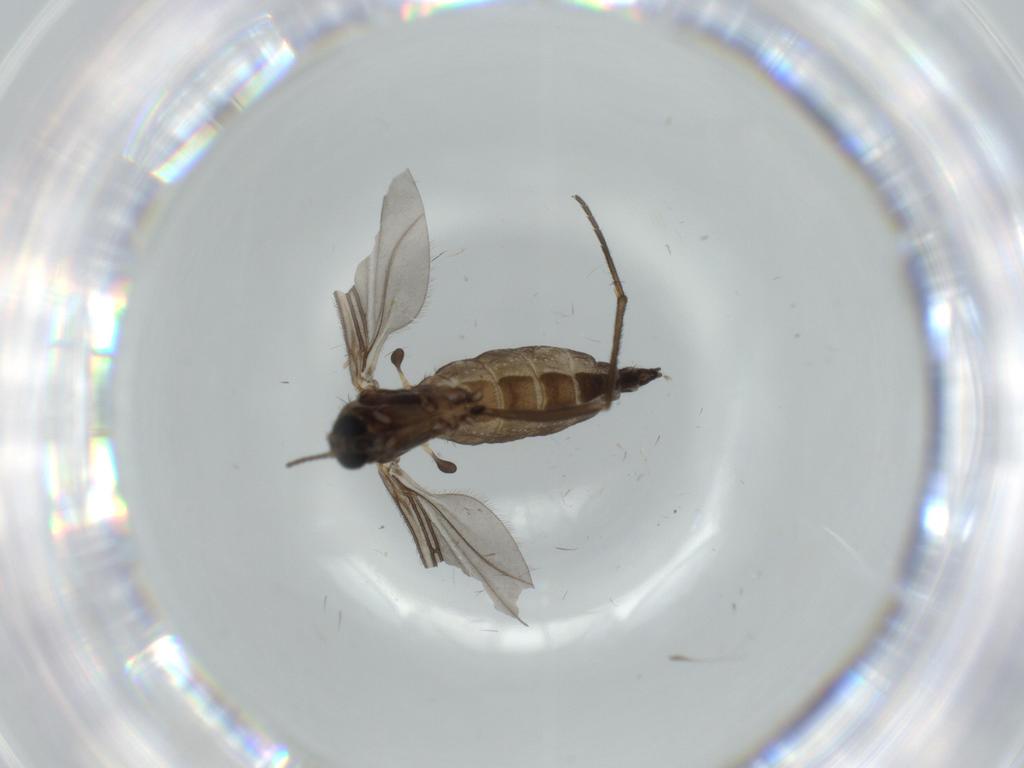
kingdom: Animalia
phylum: Arthropoda
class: Insecta
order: Diptera
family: Sciaridae
